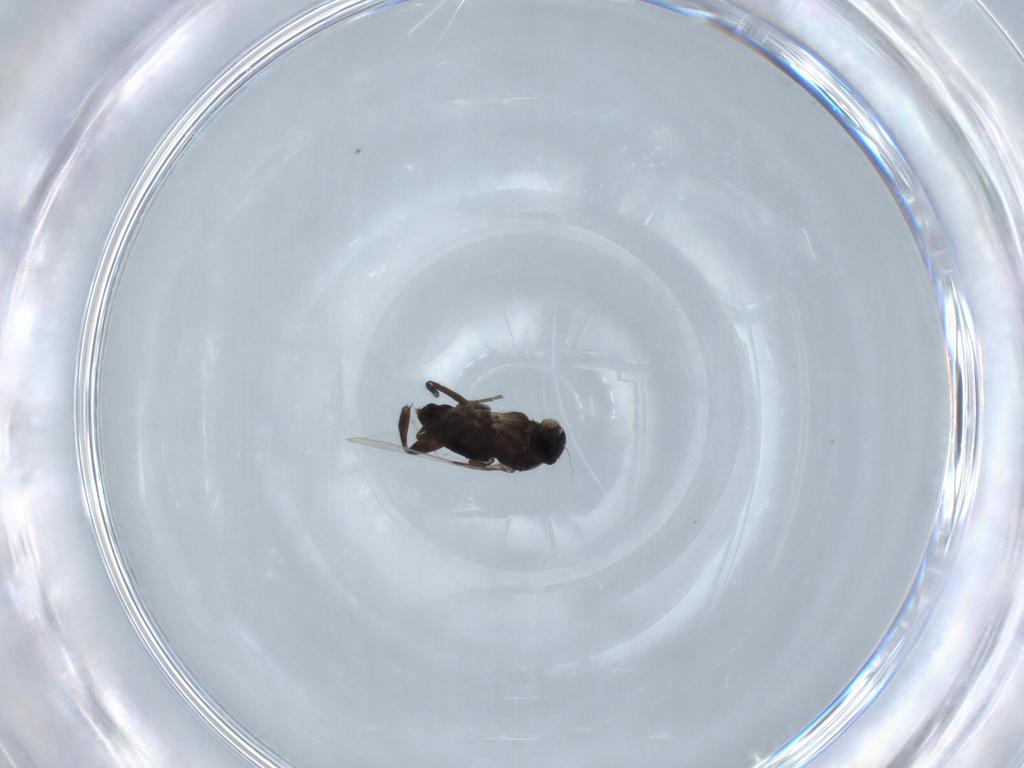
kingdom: Animalia
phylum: Arthropoda
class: Insecta
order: Diptera
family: Phoridae
